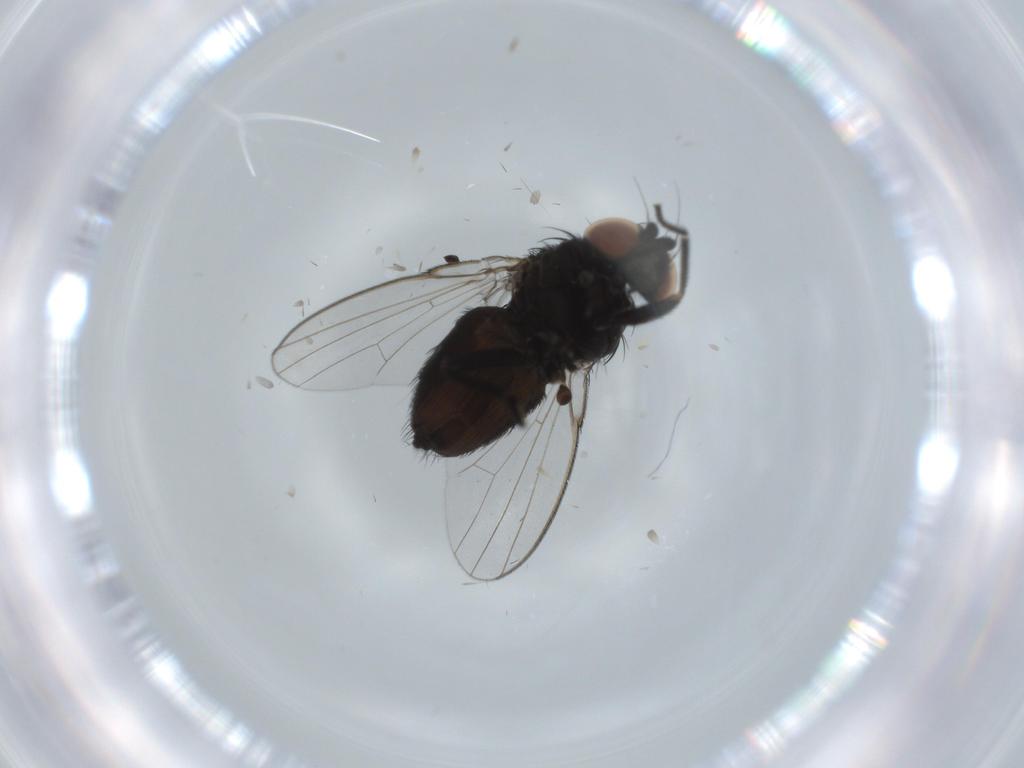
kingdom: Animalia
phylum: Arthropoda
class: Insecta
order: Diptera
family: Milichiidae
